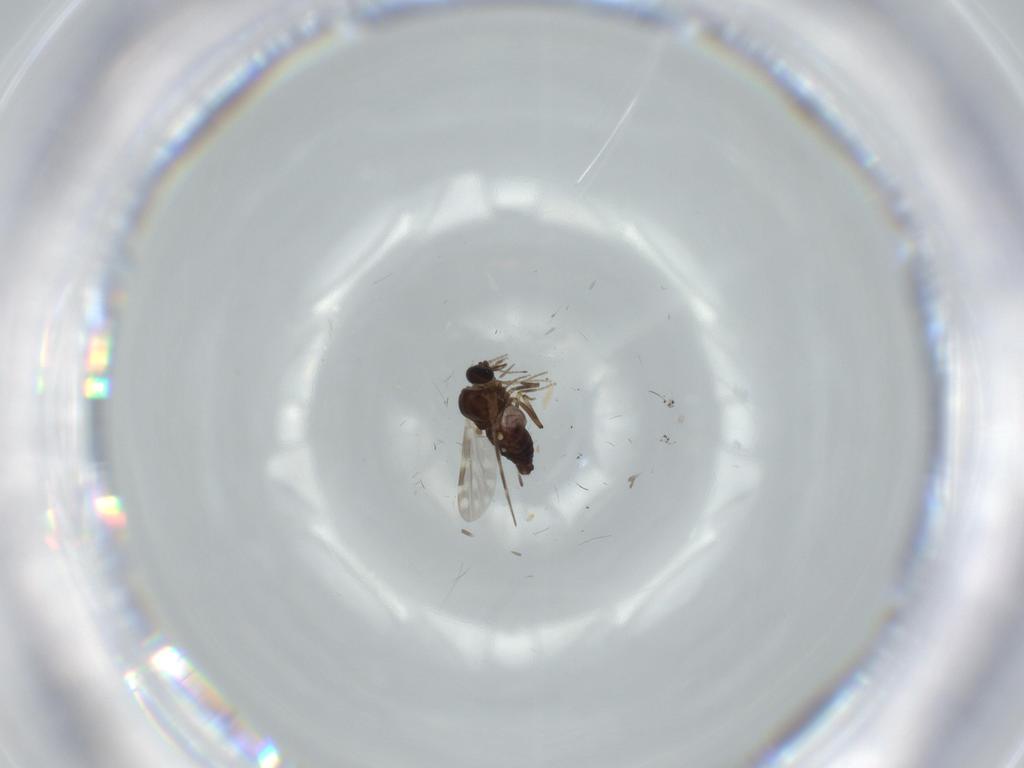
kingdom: Animalia
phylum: Arthropoda
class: Insecta
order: Diptera
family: Ceratopogonidae
